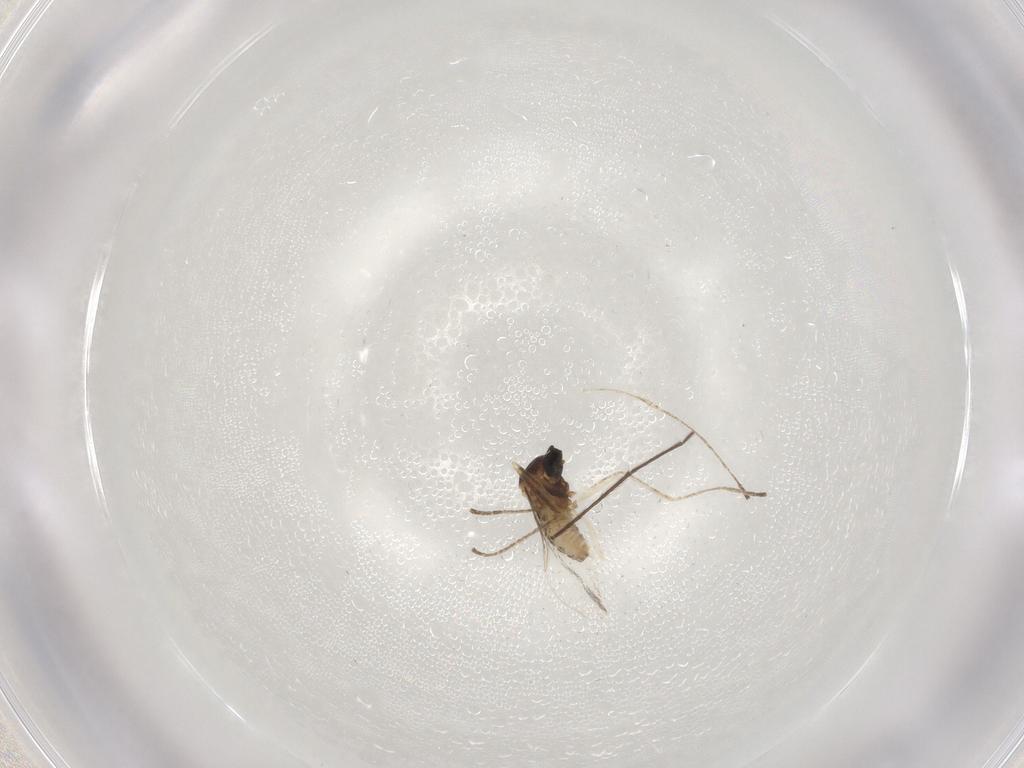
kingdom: Animalia
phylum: Arthropoda
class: Insecta
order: Diptera
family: Cecidomyiidae
